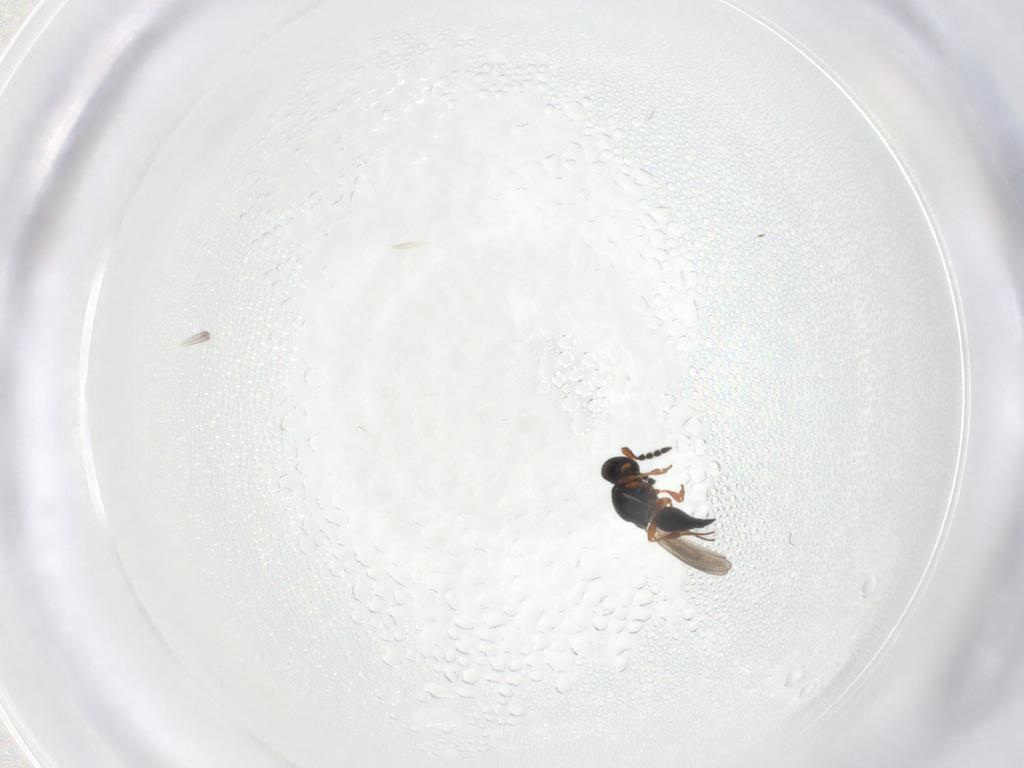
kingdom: Animalia
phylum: Arthropoda
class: Insecta
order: Hymenoptera
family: Platygastridae
